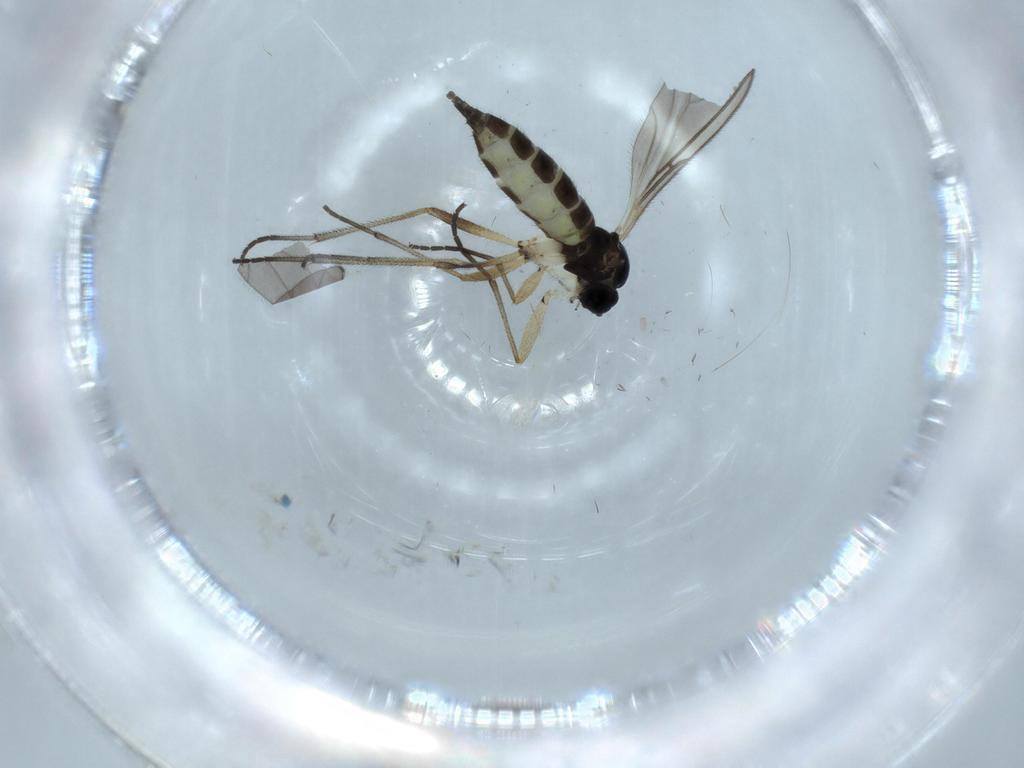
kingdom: Animalia
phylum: Arthropoda
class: Insecta
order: Diptera
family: Sciaridae
